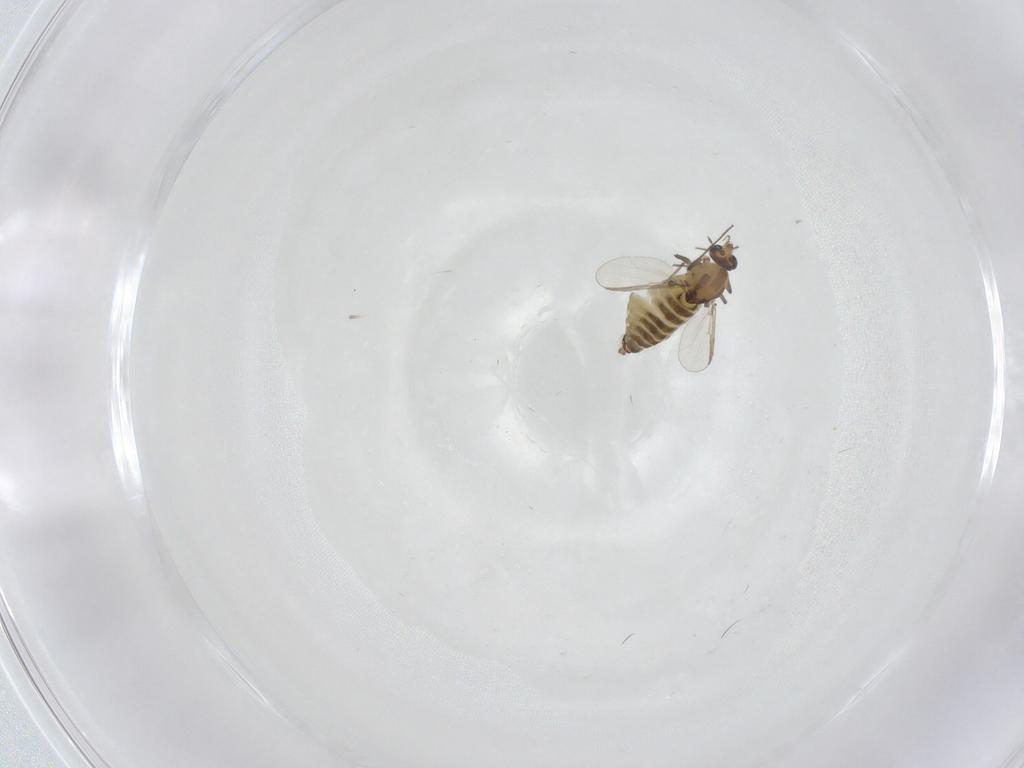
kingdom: Animalia
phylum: Arthropoda
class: Insecta
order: Diptera
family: Chironomidae
